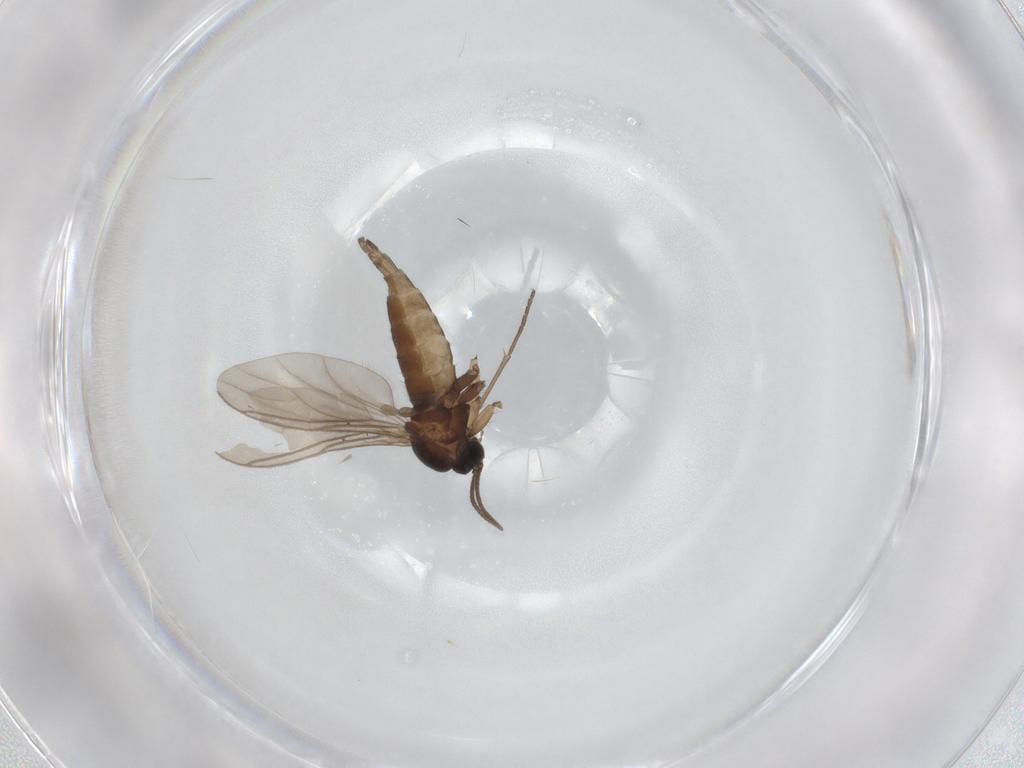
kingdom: Animalia
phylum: Arthropoda
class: Insecta
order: Diptera
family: Sciaridae
